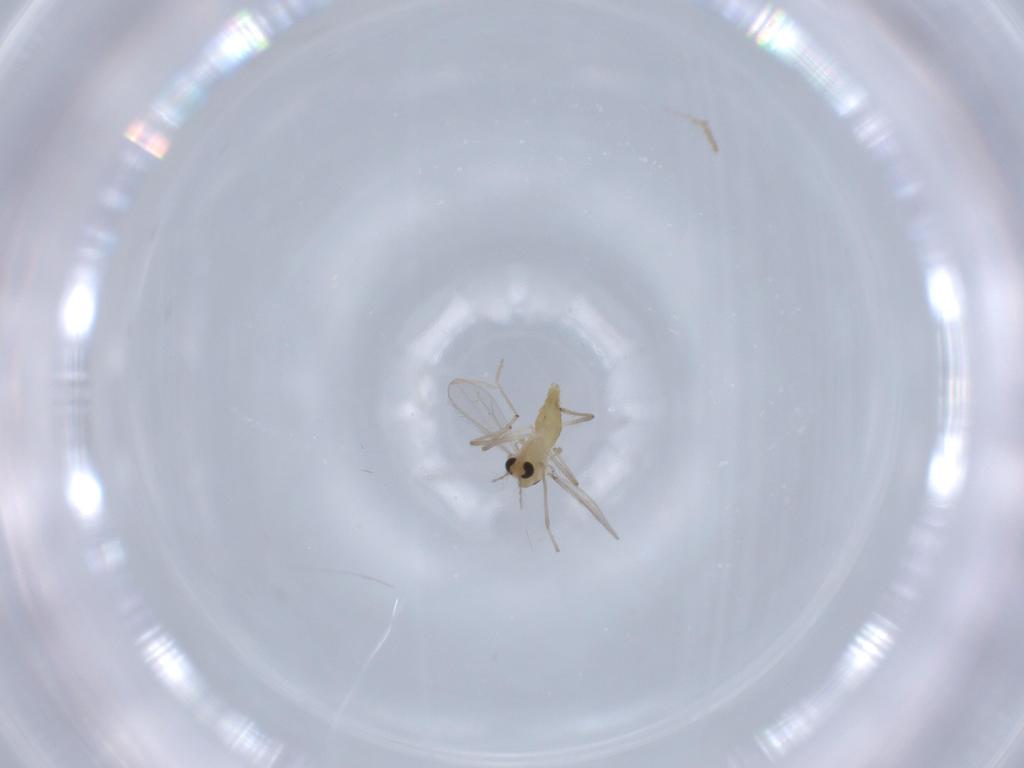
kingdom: Animalia
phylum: Arthropoda
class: Insecta
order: Diptera
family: Chironomidae
